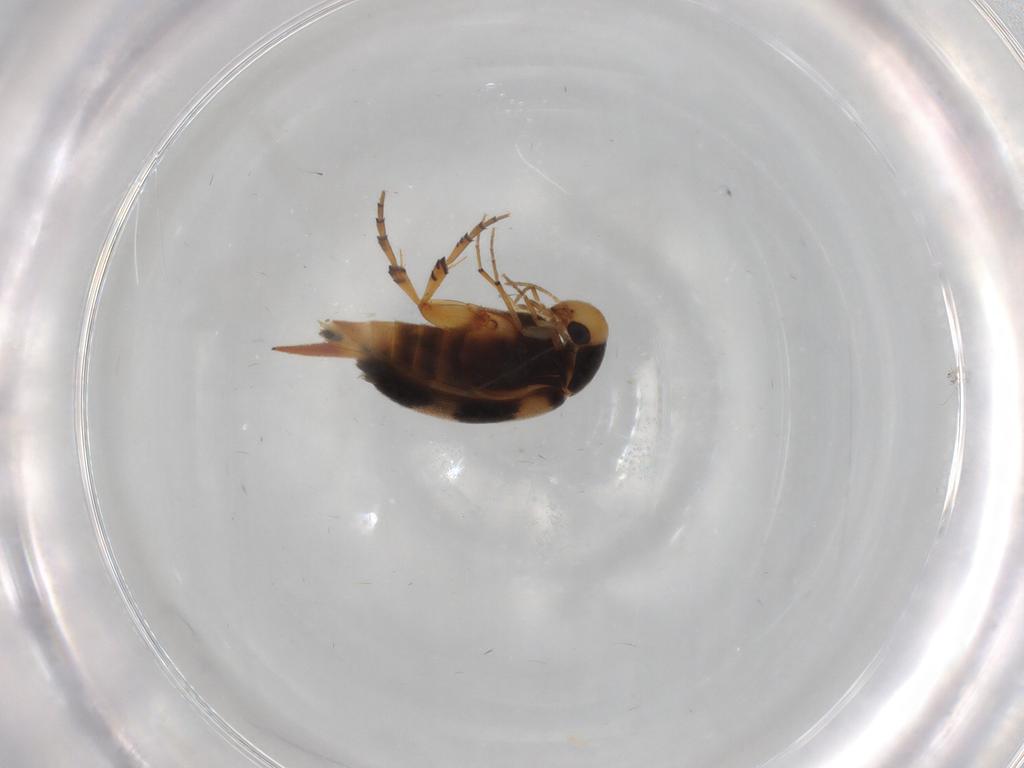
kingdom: Animalia
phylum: Arthropoda
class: Insecta
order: Coleoptera
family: Mordellidae
